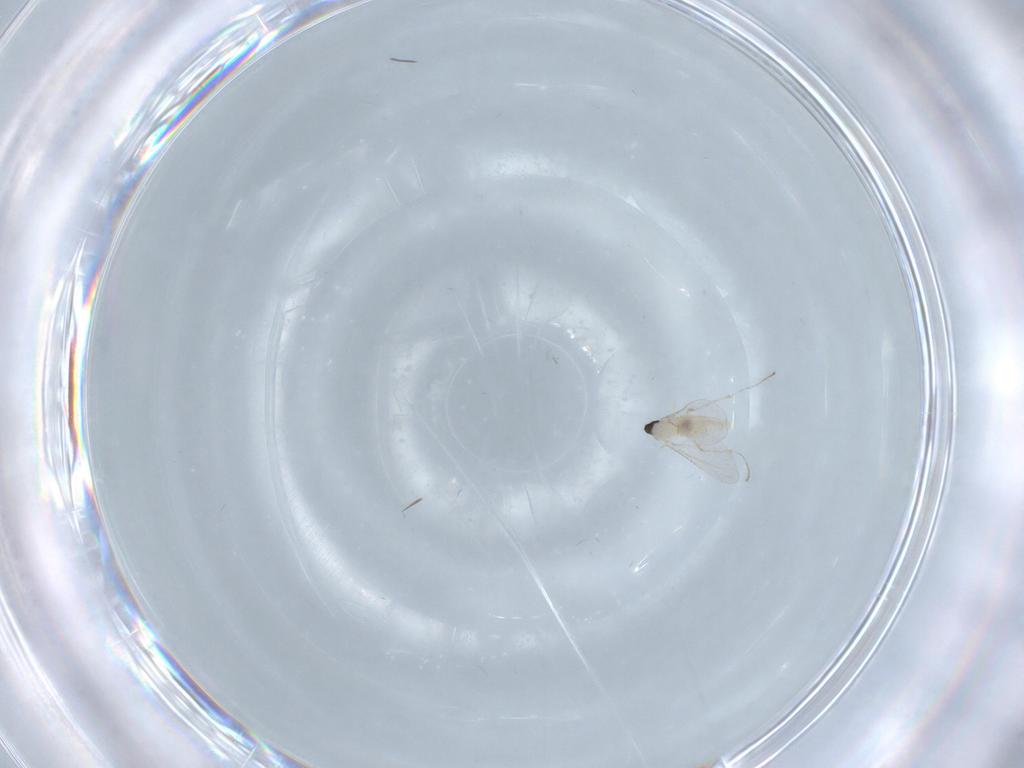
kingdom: Animalia
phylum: Arthropoda
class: Insecta
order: Diptera
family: Cecidomyiidae
